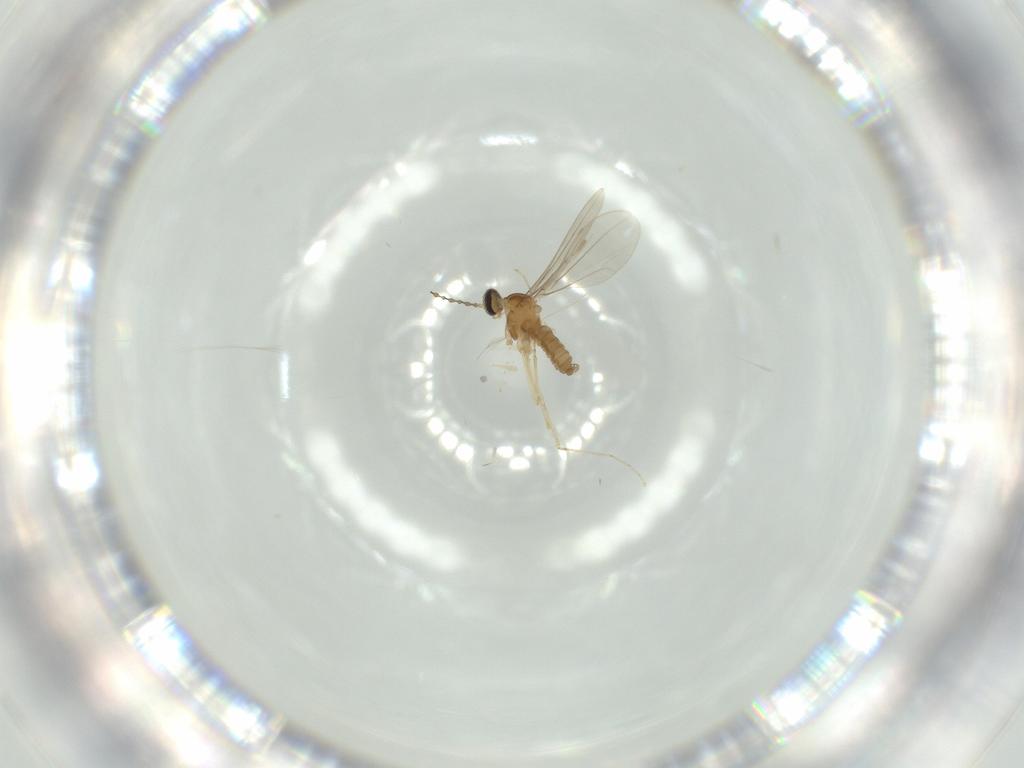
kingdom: Animalia
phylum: Arthropoda
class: Insecta
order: Diptera
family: Cecidomyiidae
